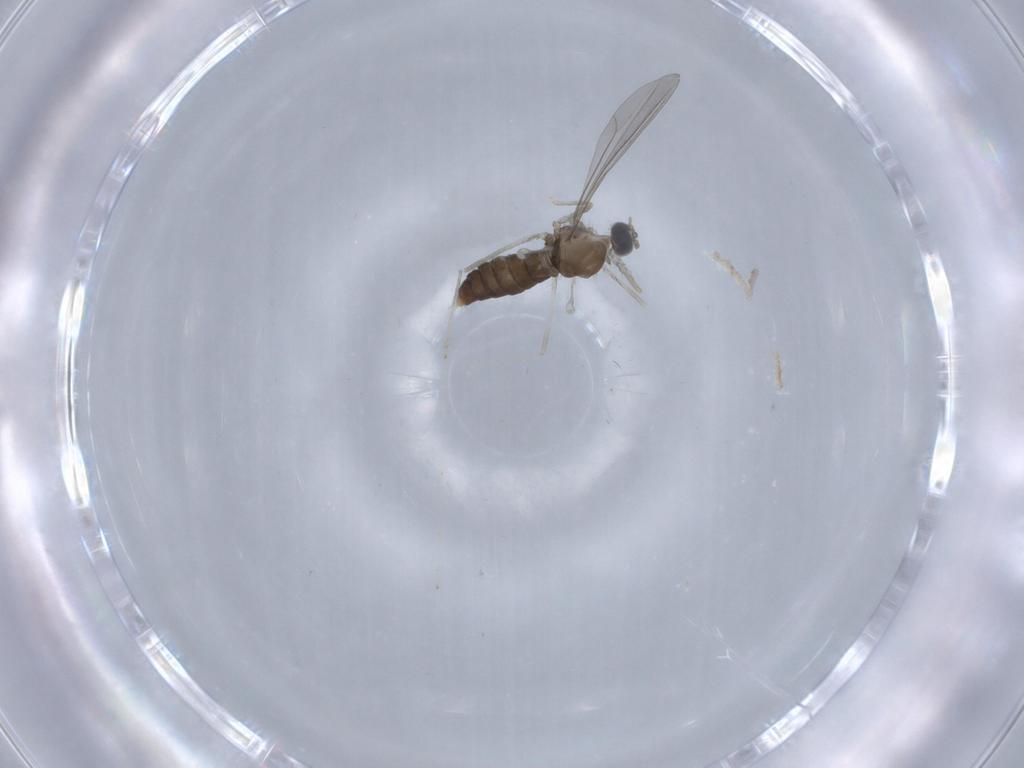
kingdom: Animalia
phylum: Arthropoda
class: Insecta
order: Diptera
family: Cecidomyiidae
